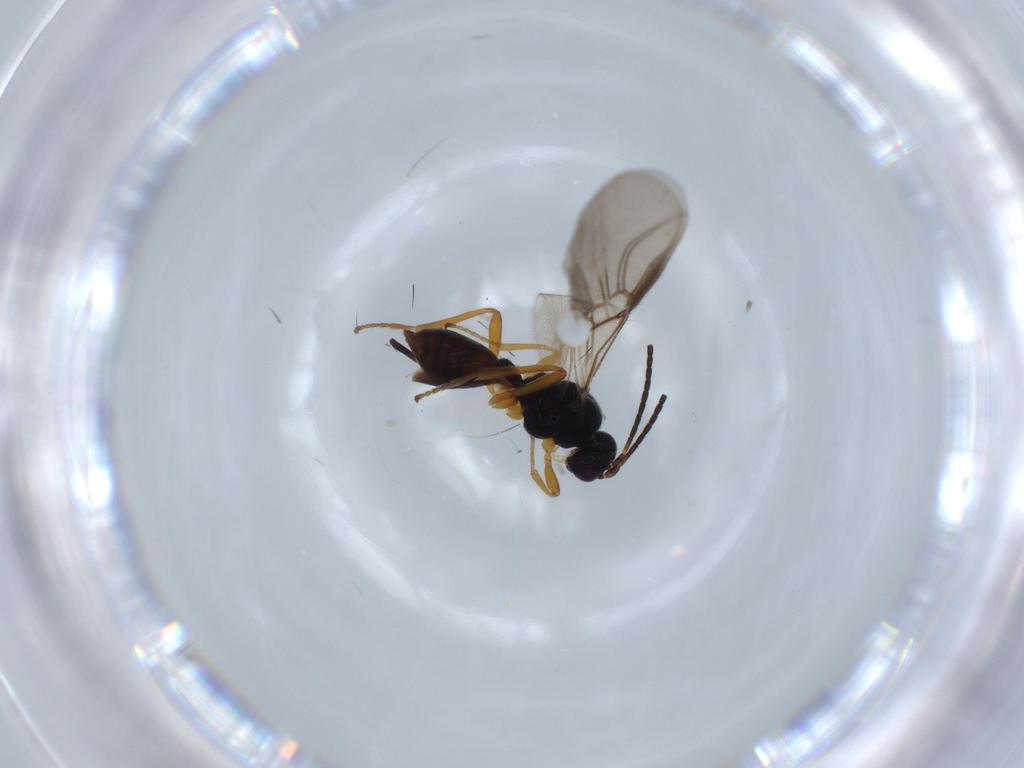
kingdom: Animalia
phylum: Arthropoda
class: Insecta
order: Hymenoptera
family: Braconidae
